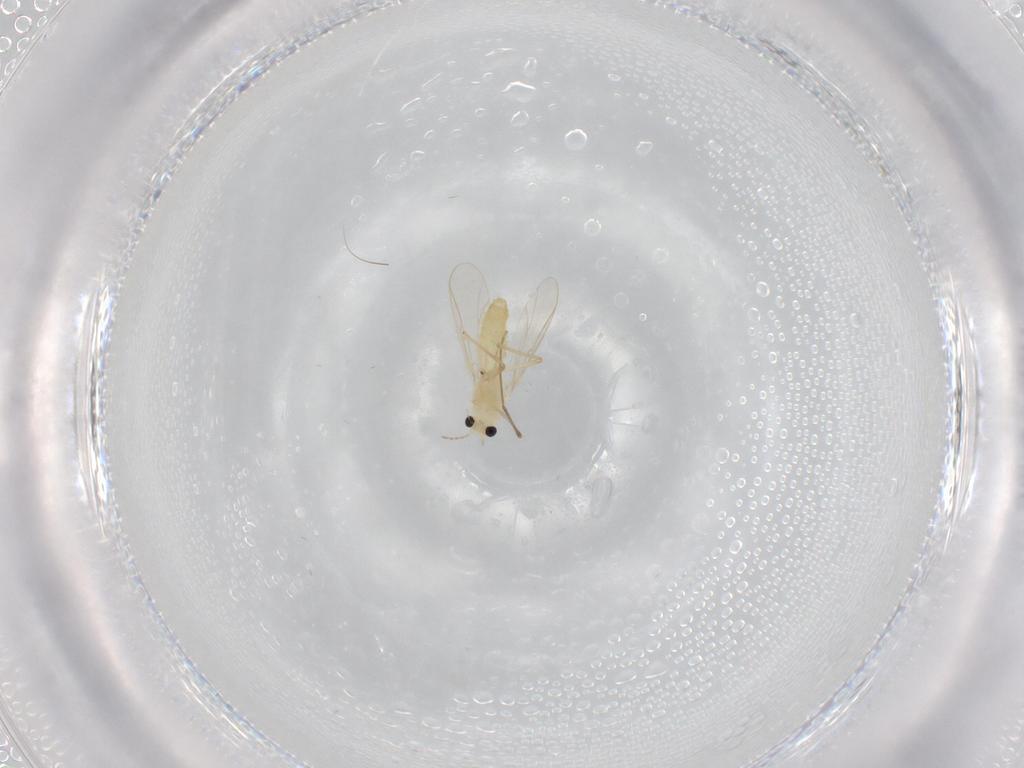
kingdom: Animalia
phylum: Arthropoda
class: Insecta
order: Diptera
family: Chironomidae
